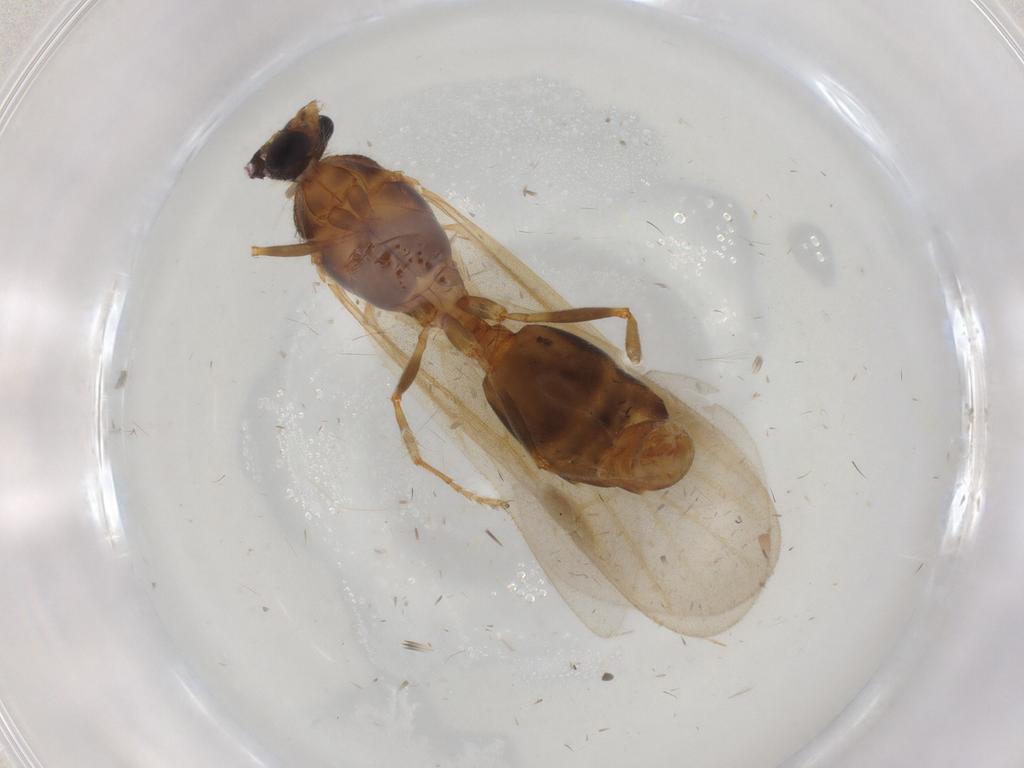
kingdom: Animalia
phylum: Arthropoda
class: Insecta
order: Hymenoptera
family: Formicidae
